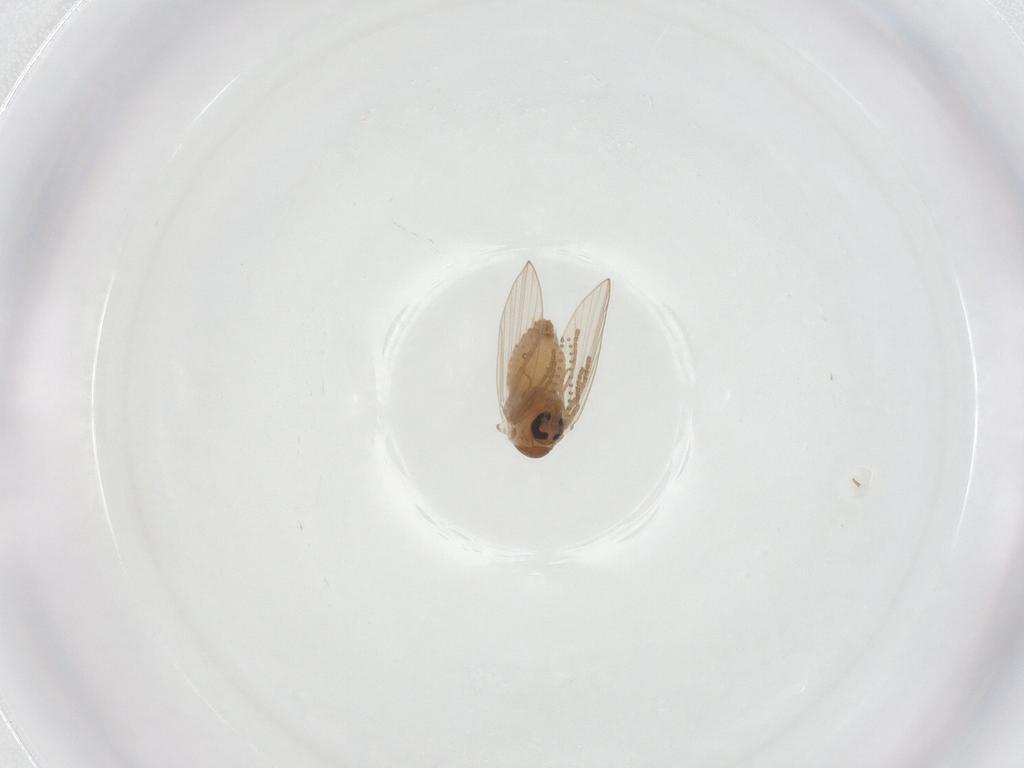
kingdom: Animalia
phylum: Arthropoda
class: Insecta
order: Diptera
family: Psychodidae
